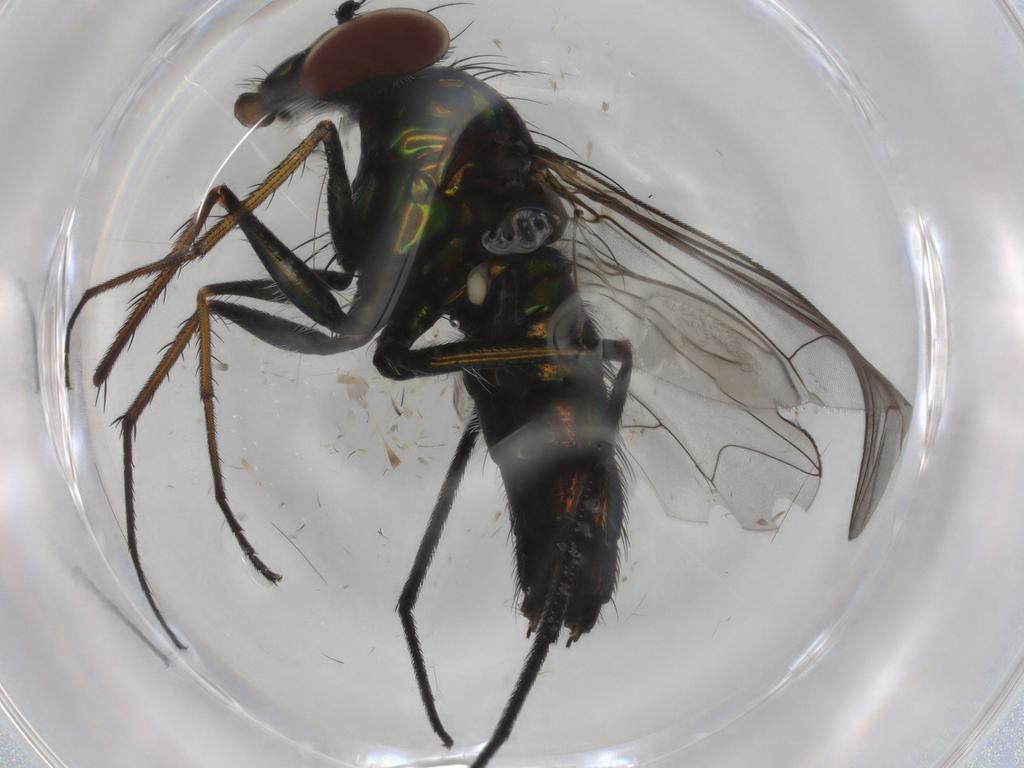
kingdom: Animalia
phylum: Arthropoda
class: Insecta
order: Diptera
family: Dolichopodidae
